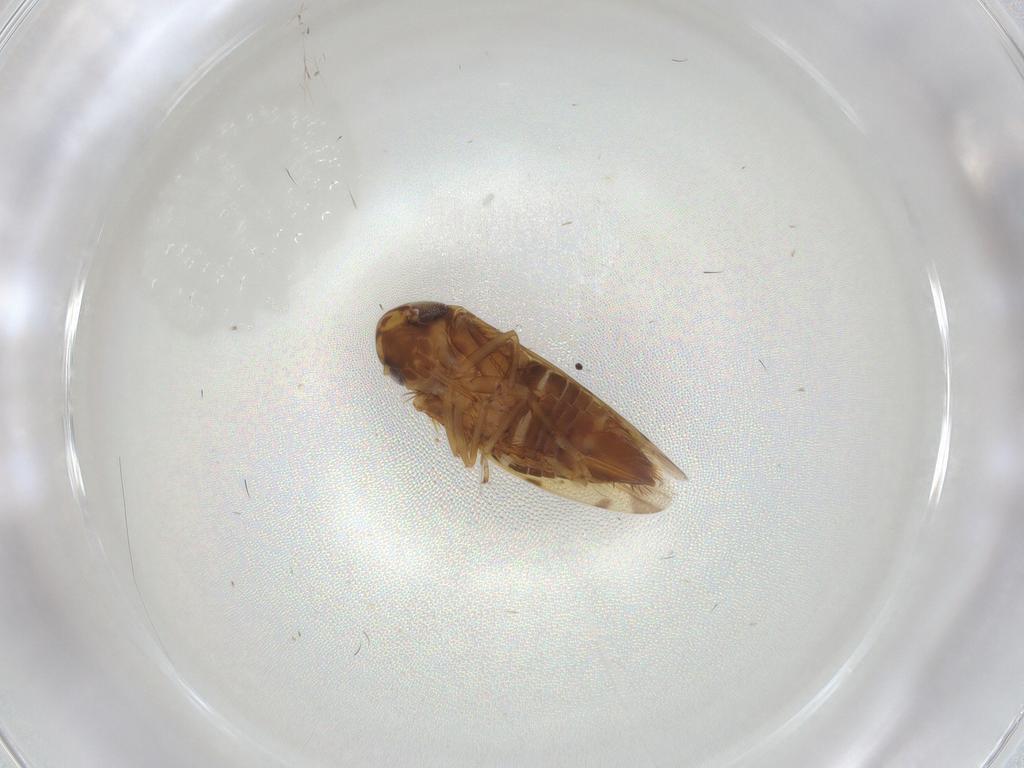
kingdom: Animalia
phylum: Arthropoda
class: Insecta
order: Hemiptera
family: Cicadellidae
